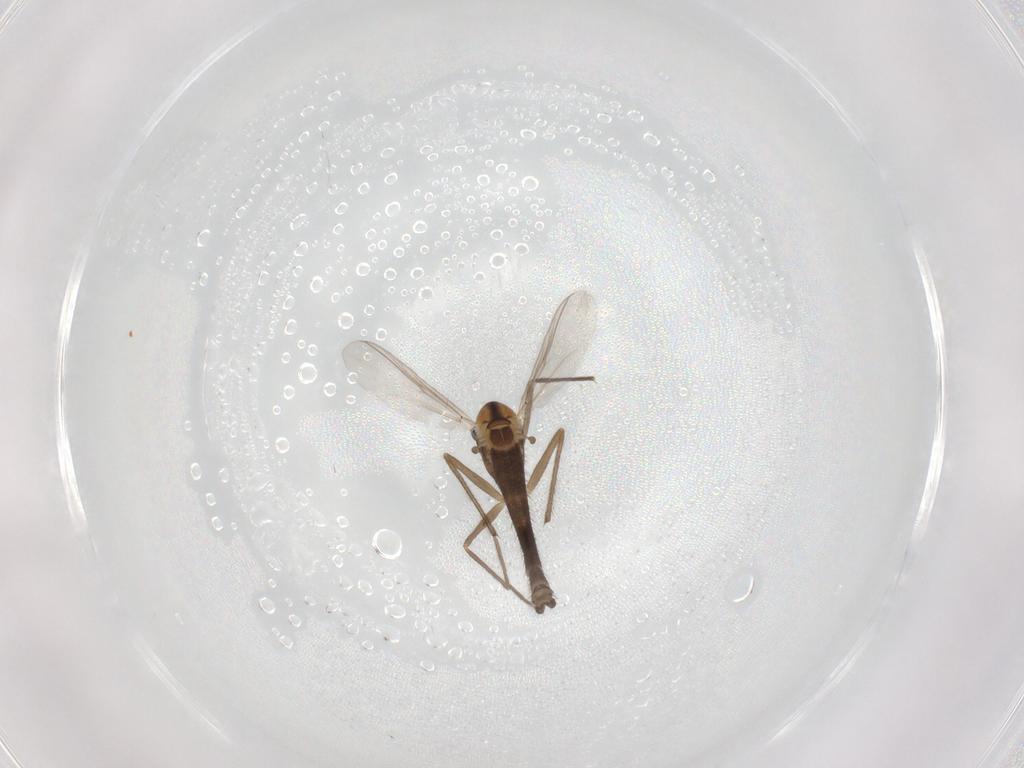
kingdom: Animalia
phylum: Arthropoda
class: Insecta
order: Diptera
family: Chironomidae
